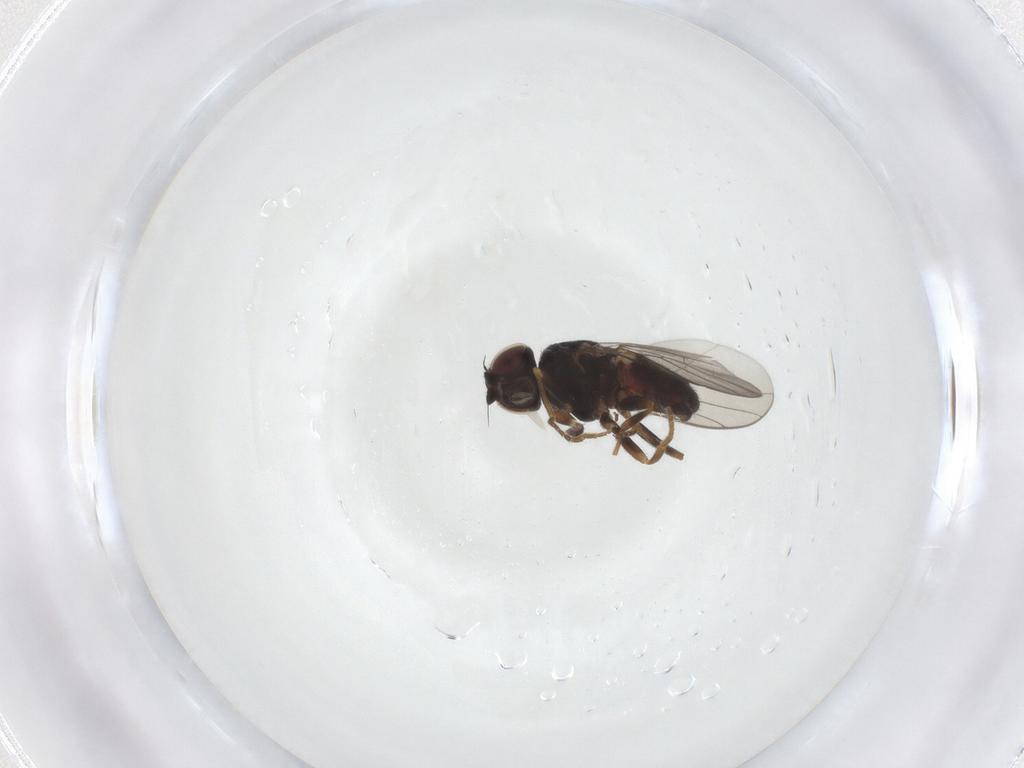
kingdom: Animalia
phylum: Arthropoda
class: Insecta
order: Diptera
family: Chloropidae
